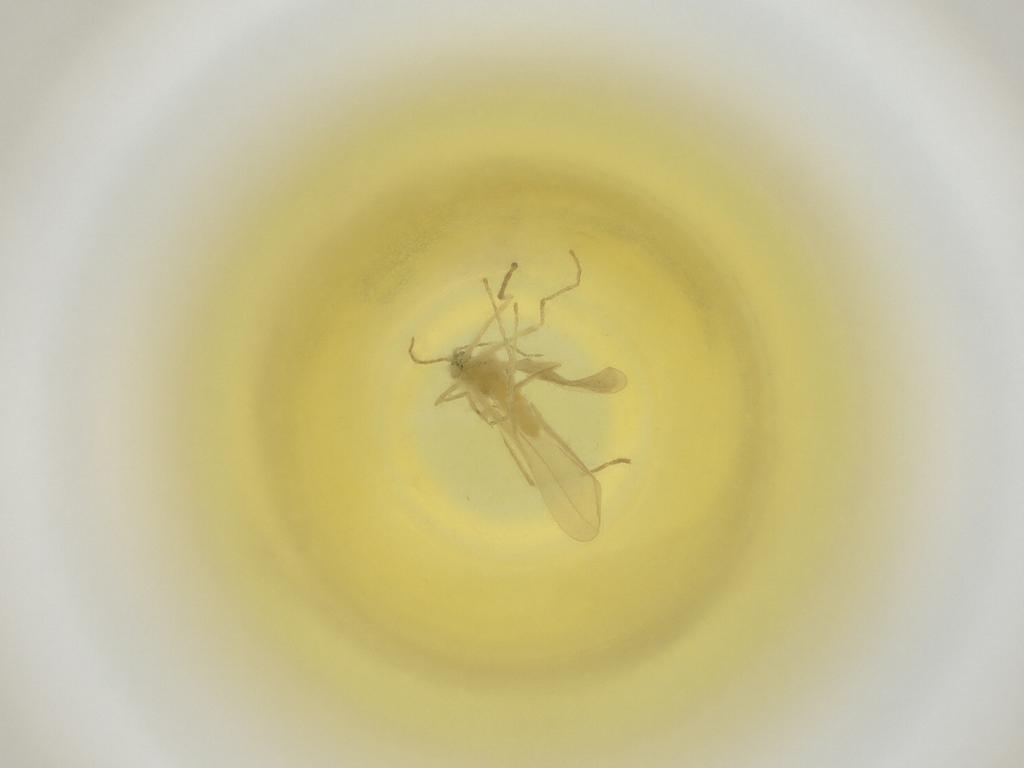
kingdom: Animalia
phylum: Arthropoda
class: Insecta
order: Diptera
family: Cecidomyiidae
